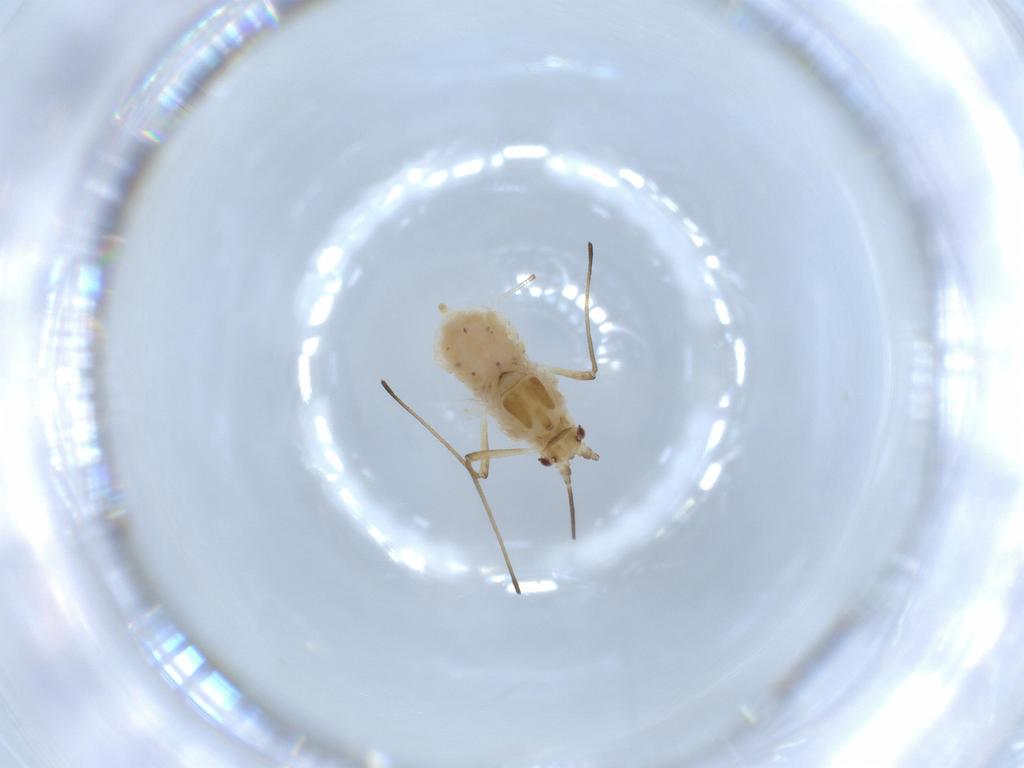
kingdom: Animalia
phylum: Arthropoda
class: Insecta
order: Hemiptera
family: Aphididae
